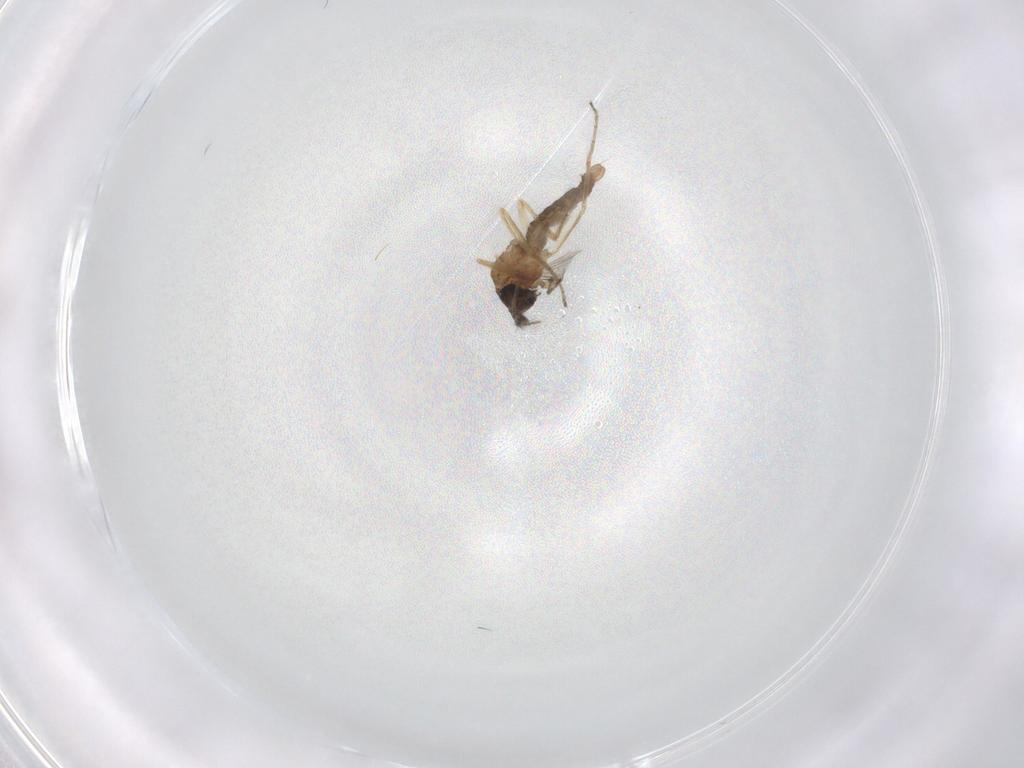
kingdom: Animalia
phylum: Arthropoda
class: Insecta
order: Diptera
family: Ceratopogonidae
